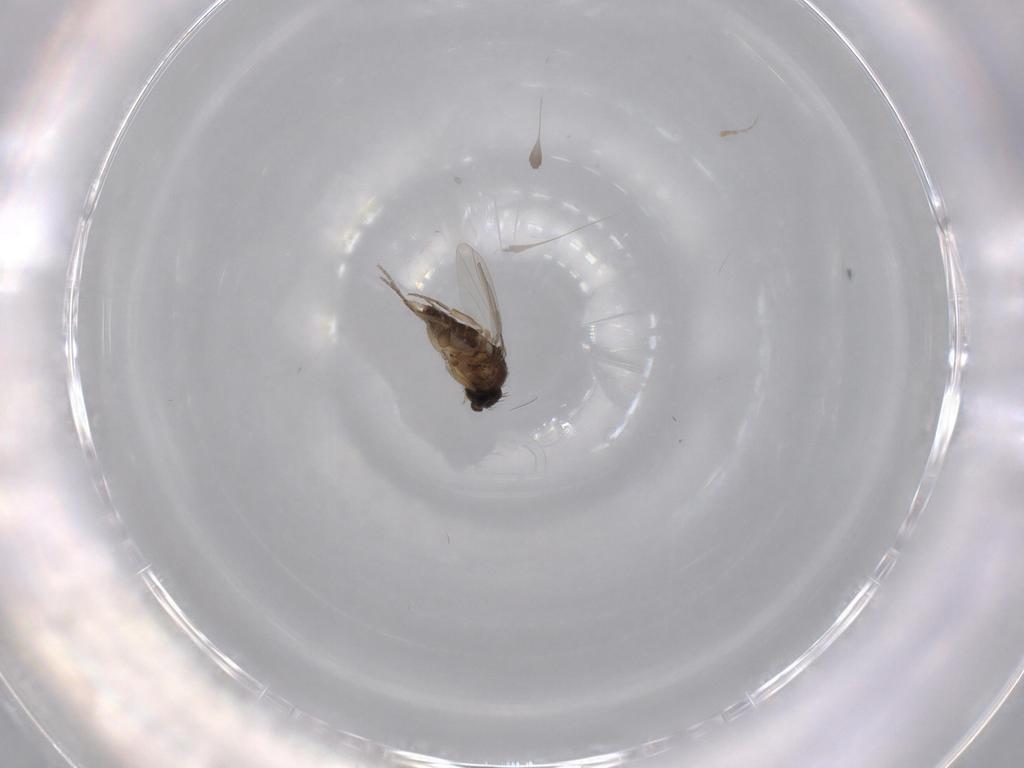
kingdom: Animalia
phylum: Arthropoda
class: Insecta
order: Diptera
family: Phoridae
